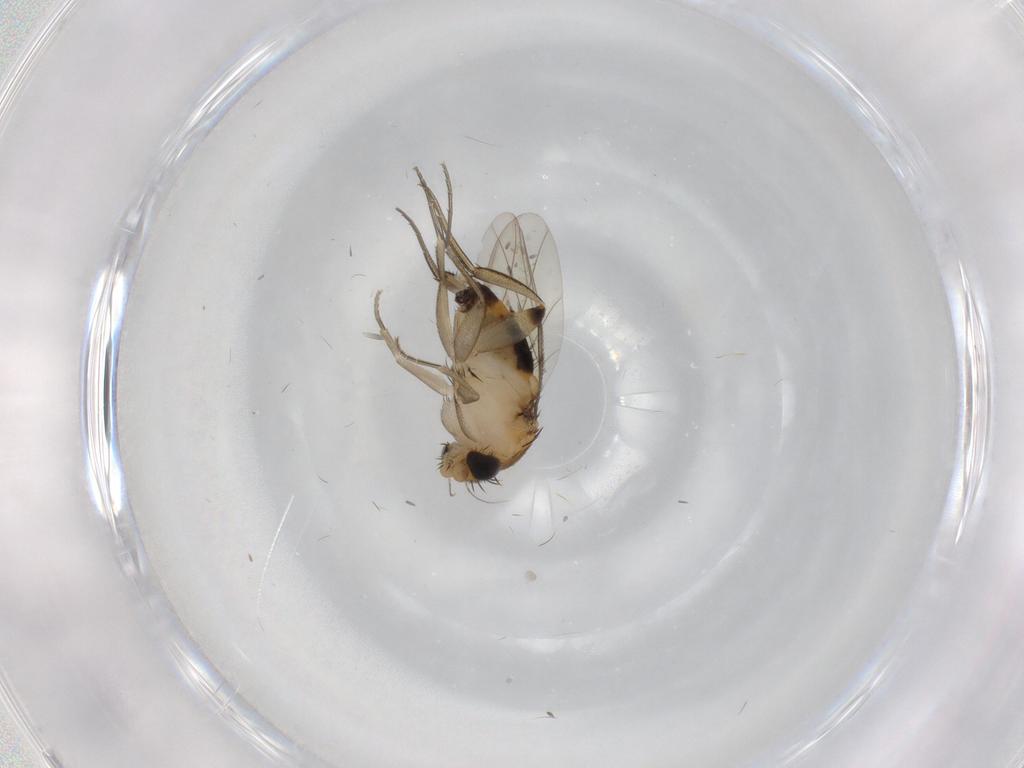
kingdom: Animalia
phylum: Arthropoda
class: Insecta
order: Diptera
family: Phoridae
